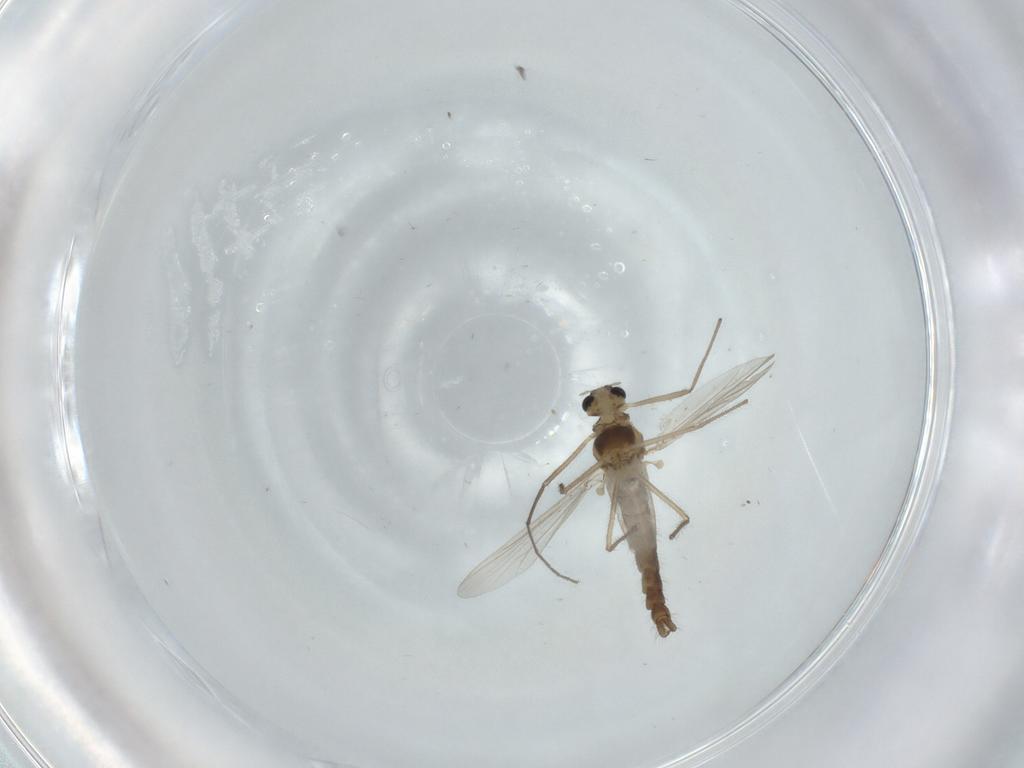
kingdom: Animalia
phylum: Arthropoda
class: Insecta
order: Diptera
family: Chironomidae
